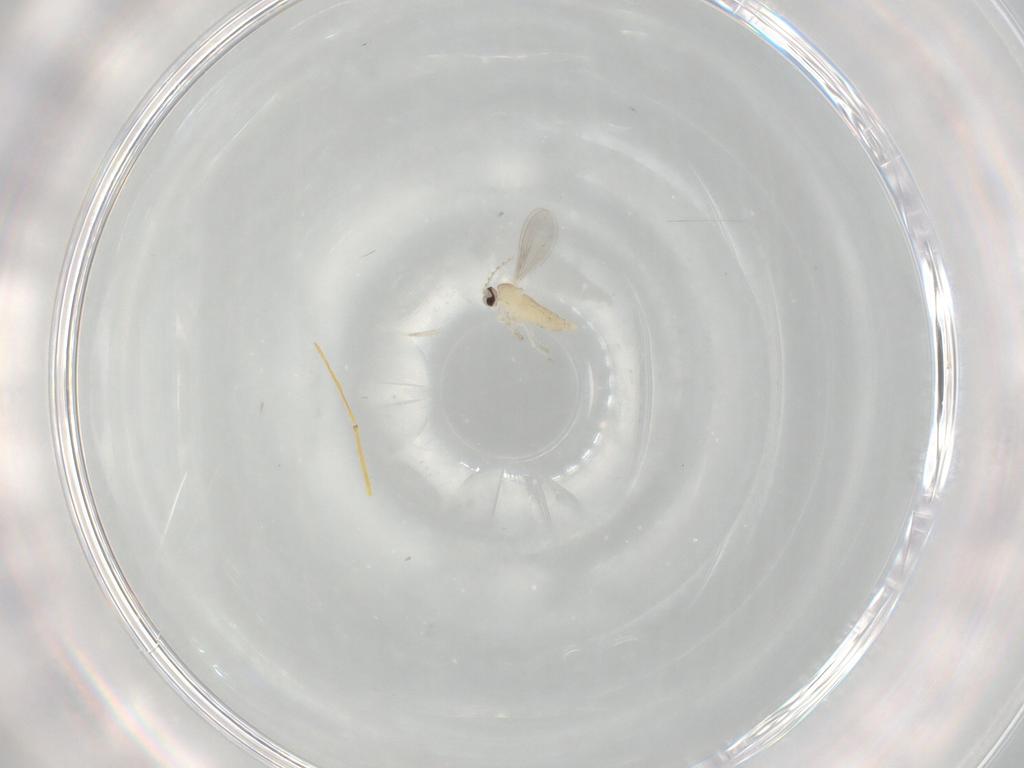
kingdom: Animalia
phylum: Arthropoda
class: Insecta
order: Diptera
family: Cecidomyiidae
